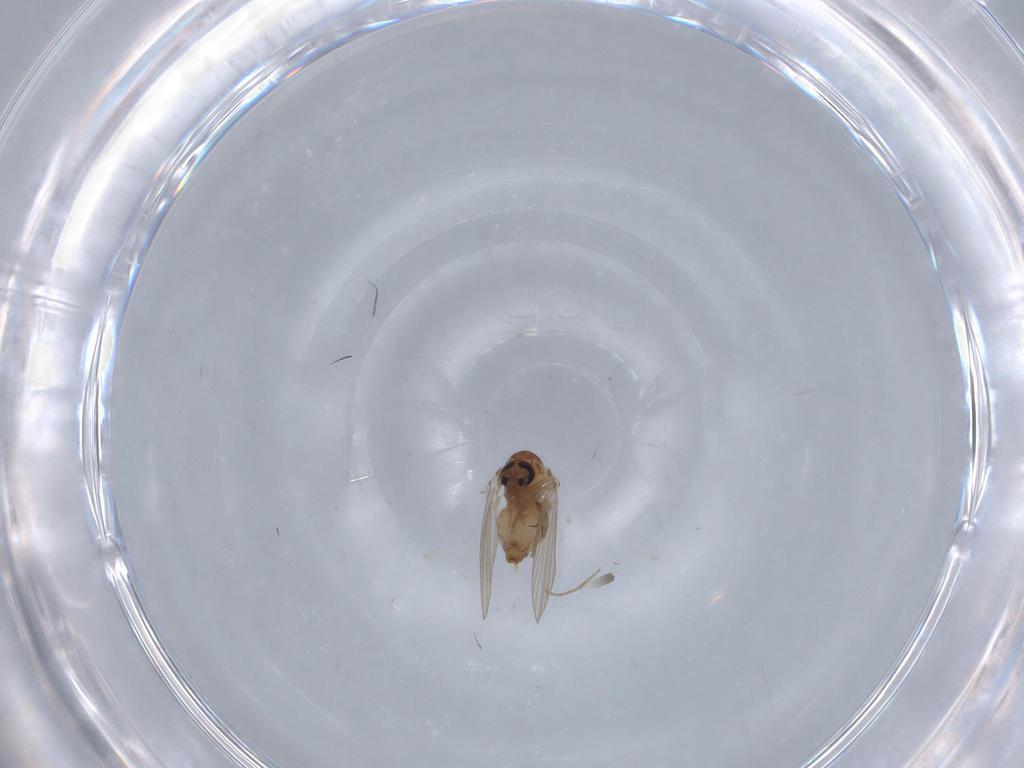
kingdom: Animalia
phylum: Arthropoda
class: Insecta
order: Diptera
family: Psychodidae
